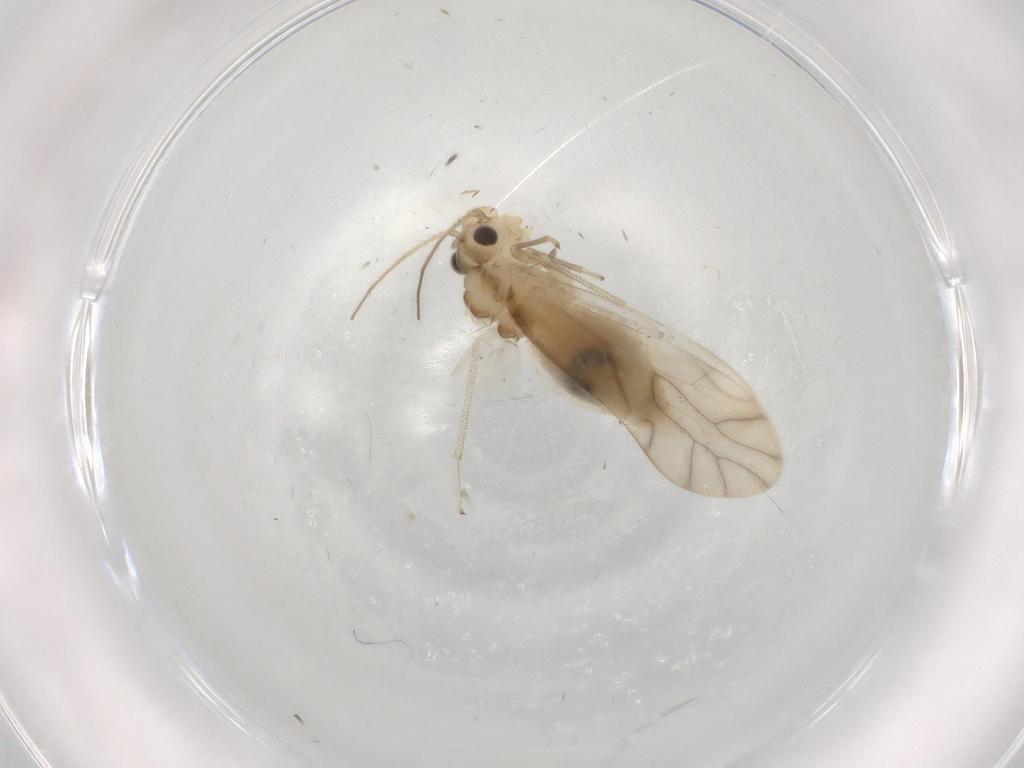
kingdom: Animalia
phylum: Arthropoda
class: Insecta
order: Psocodea
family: Caeciliusidae
